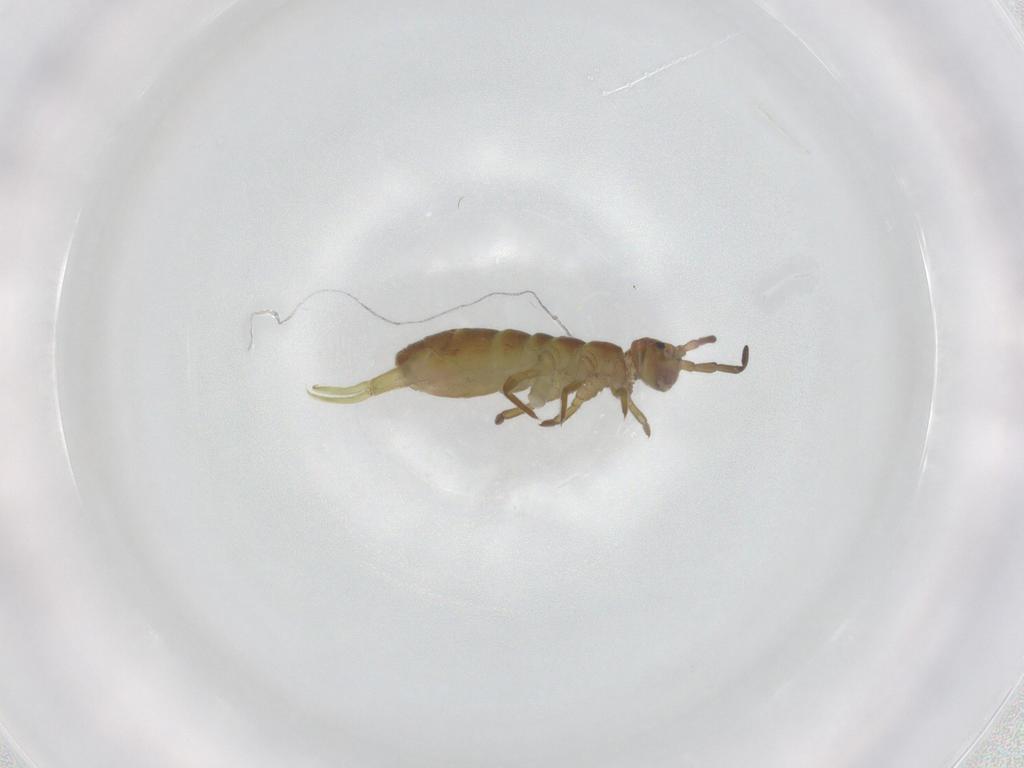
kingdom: Animalia
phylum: Arthropoda
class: Collembola
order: Entomobryomorpha
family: Isotomidae
